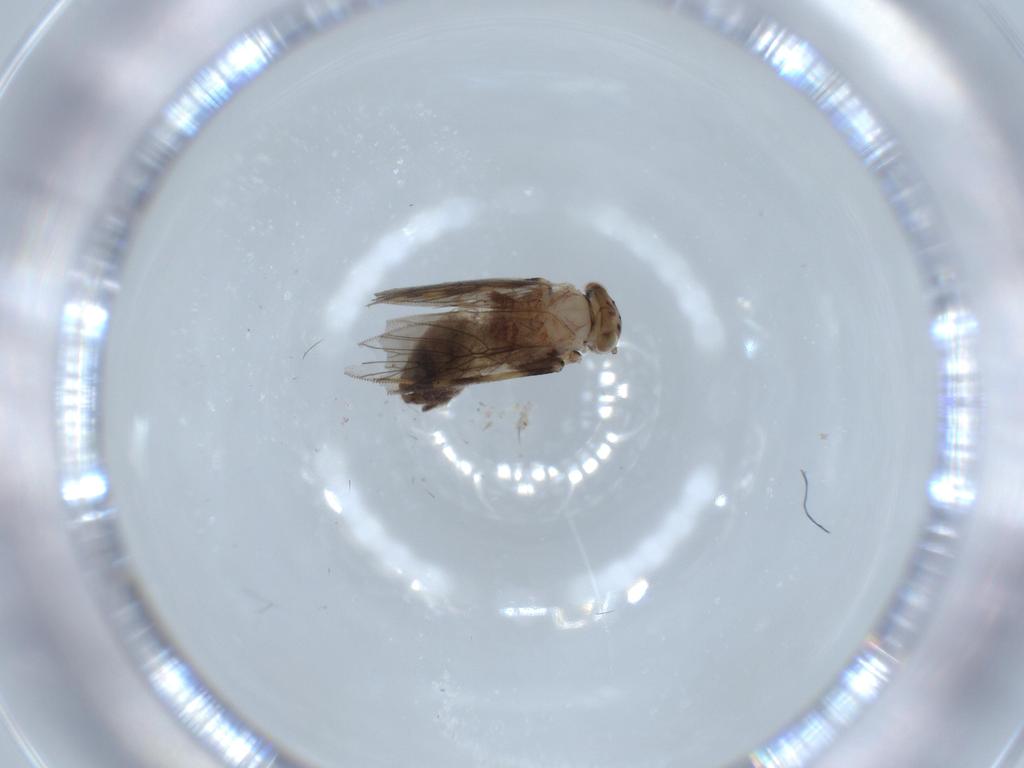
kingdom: Animalia
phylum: Arthropoda
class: Insecta
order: Psocodea
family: Lepidopsocidae
